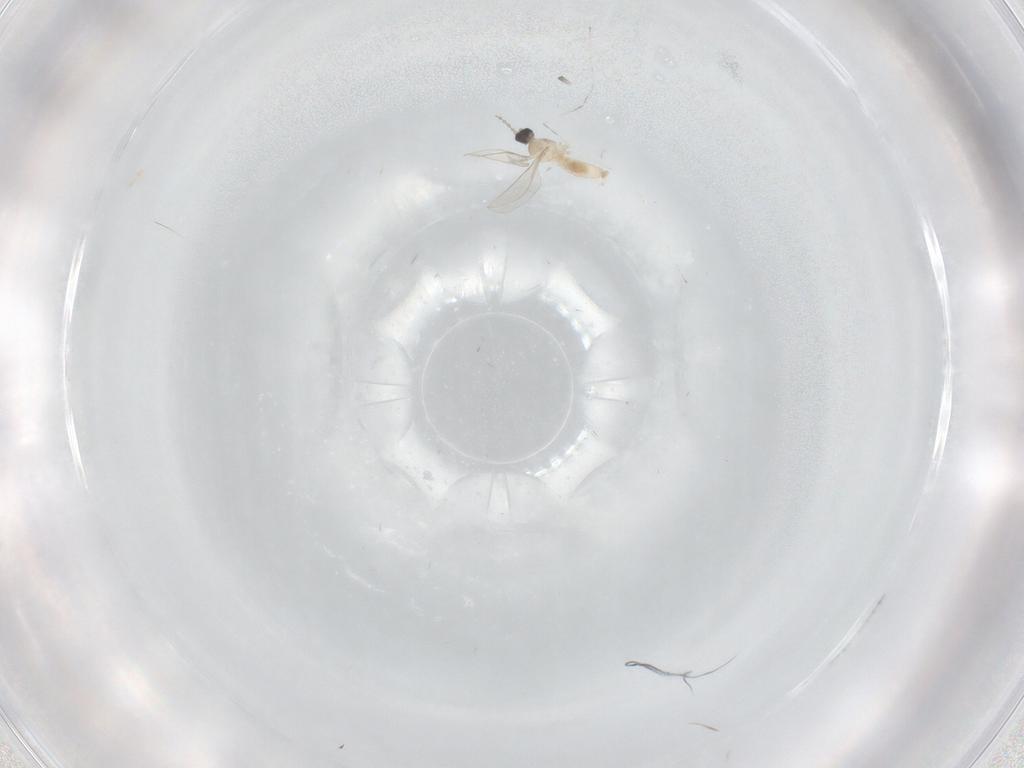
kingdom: Animalia
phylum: Arthropoda
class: Insecta
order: Diptera
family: Cecidomyiidae
